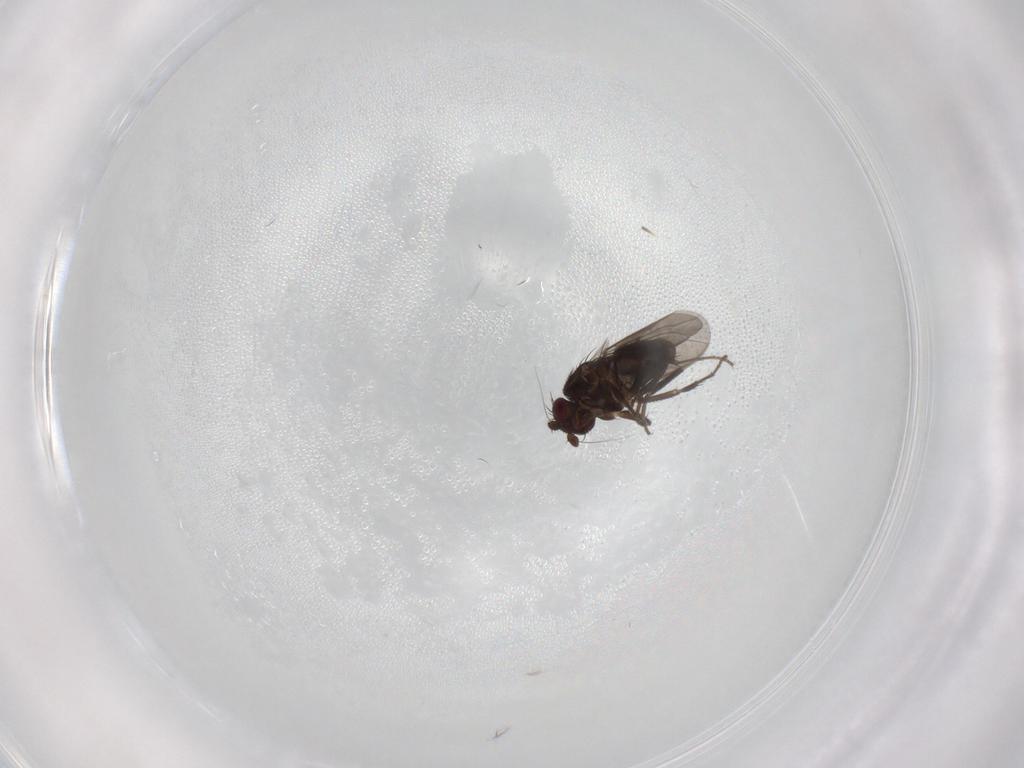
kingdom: Animalia
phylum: Arthropoda
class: Insecta
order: Diptera
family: Sphaeroceridae
